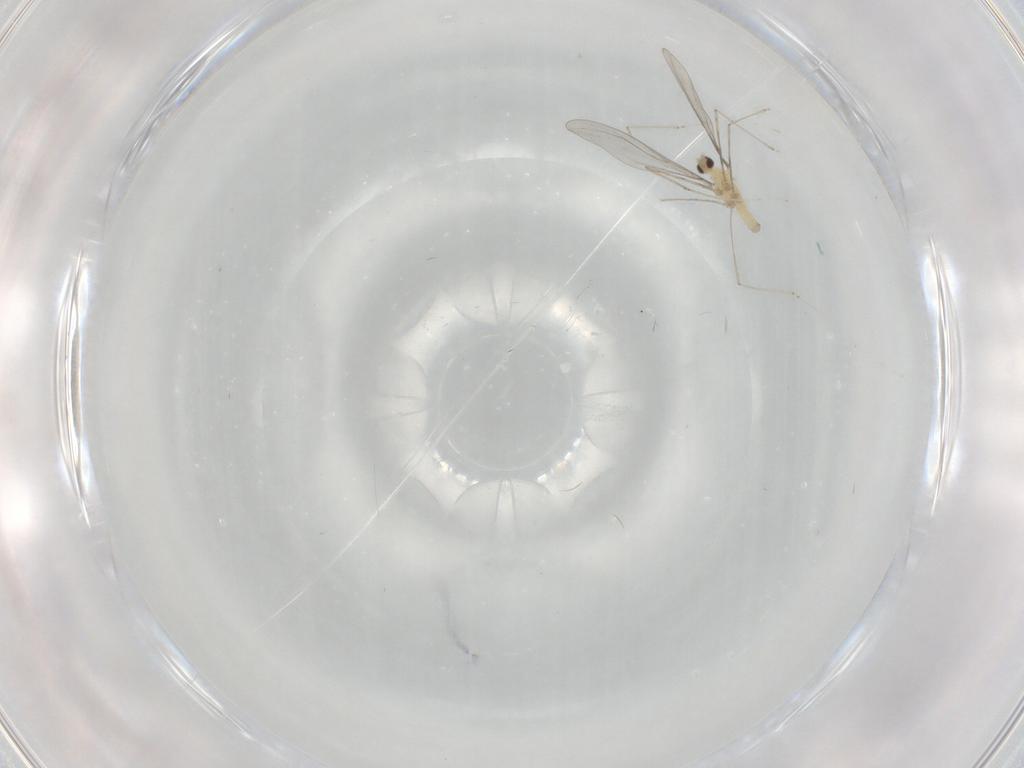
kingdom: Animalia
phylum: Arthropoda
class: Insecta
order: Diptera
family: Cecidomyiidae
